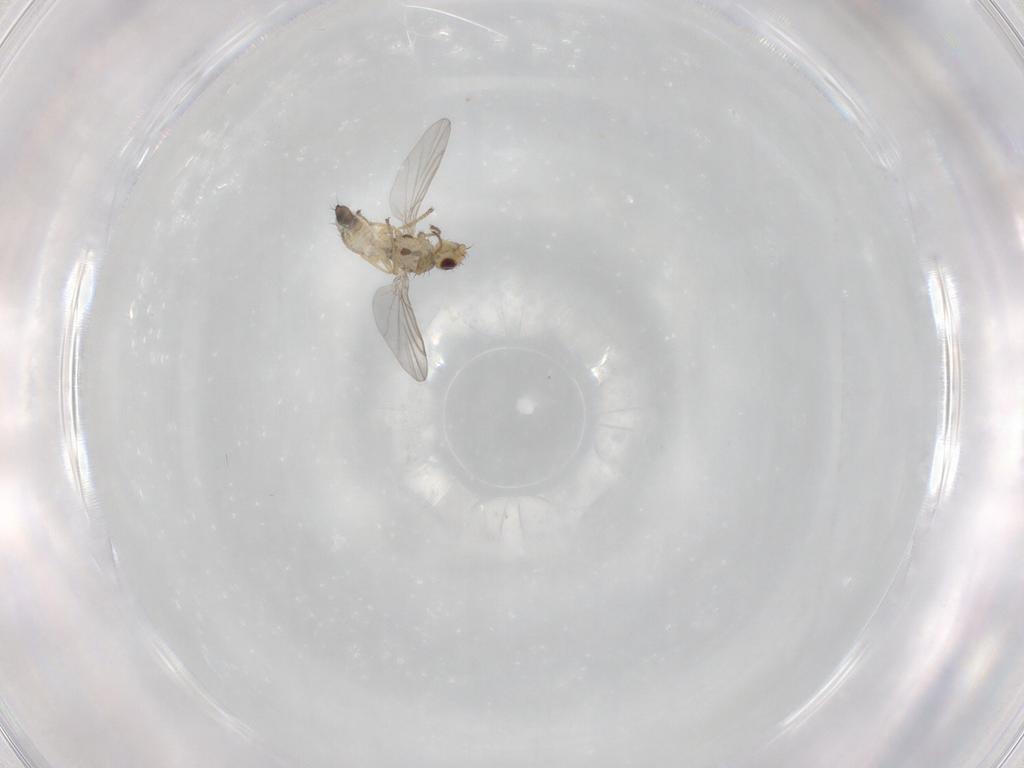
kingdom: Animalia
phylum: Arthropoda
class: Insecta
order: Diptera
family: Agromyzidae
